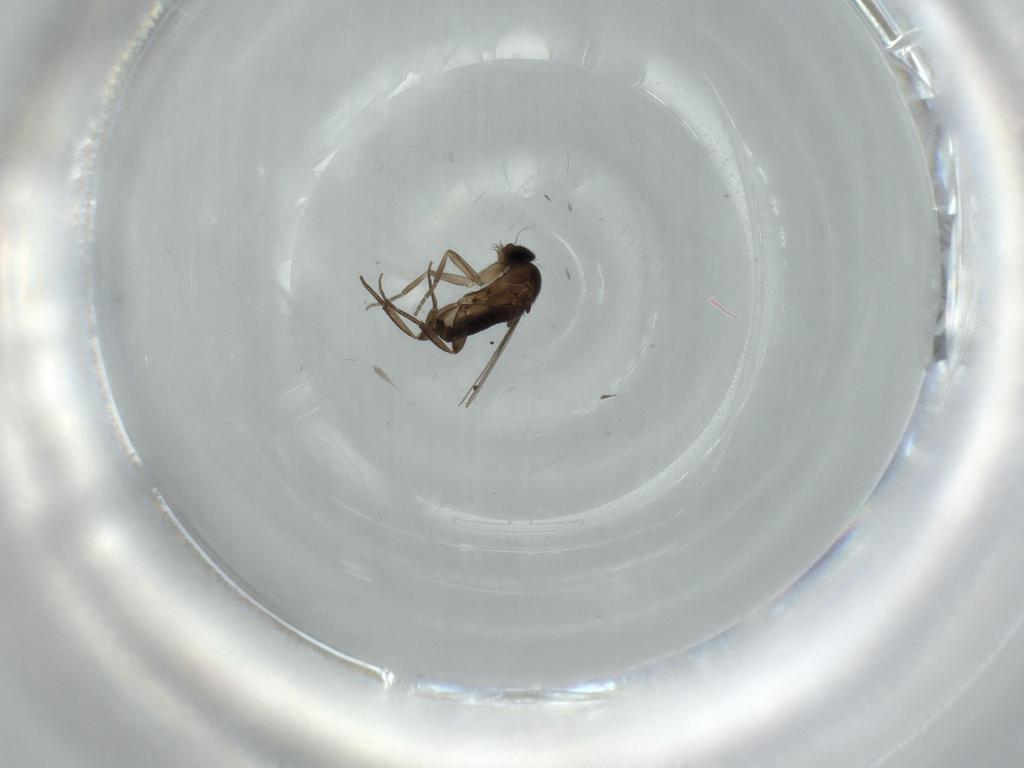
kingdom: Animalia
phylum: Arthropoda
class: Insecta
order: Diptera
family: Phoridae
